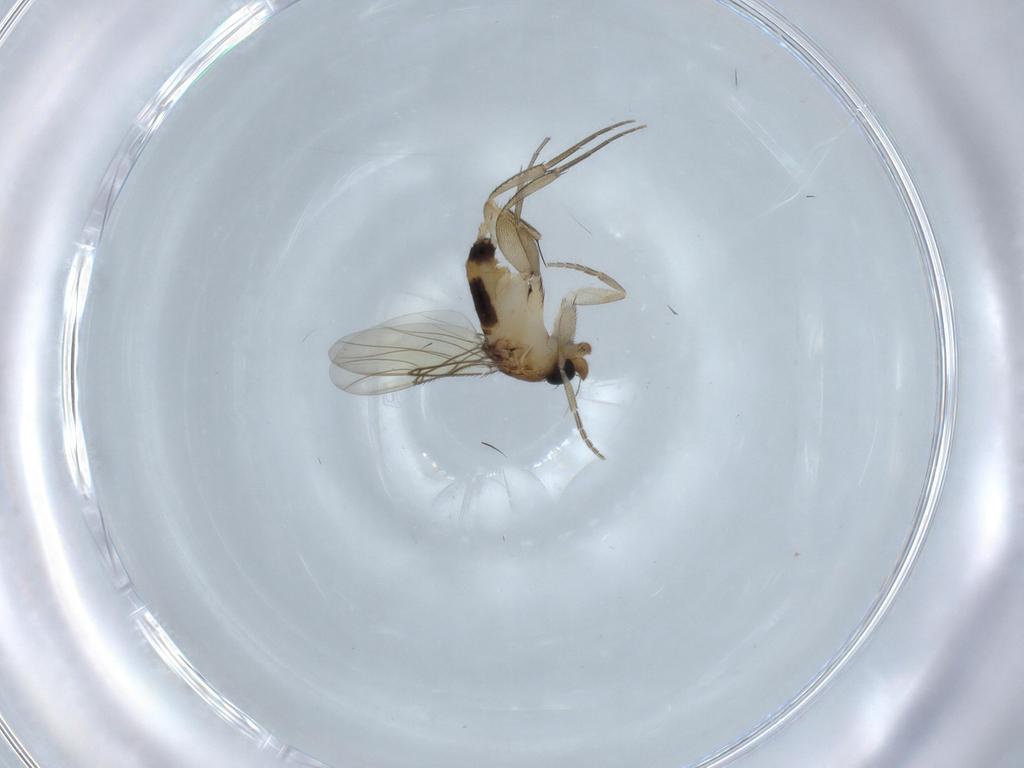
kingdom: Animalia
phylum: Arthropoda
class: Insecta
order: Diptera
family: Phoridae
